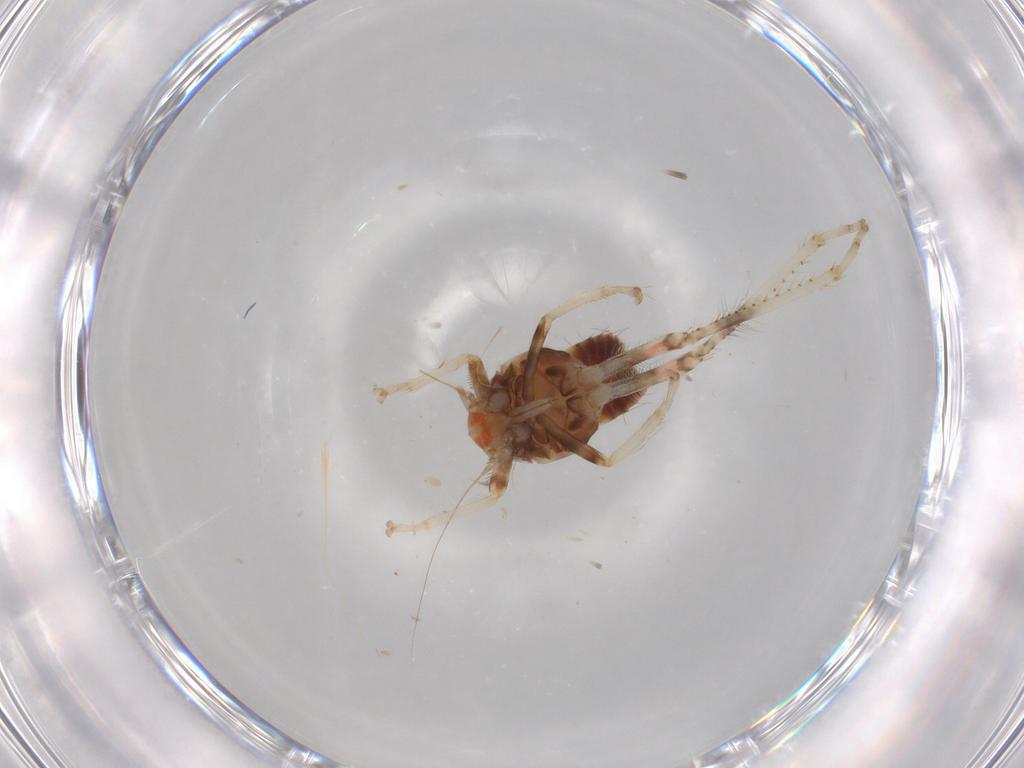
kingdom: Animalia
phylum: Arthropoda
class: Insecta
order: Hemiptera
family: Cicadellidae
